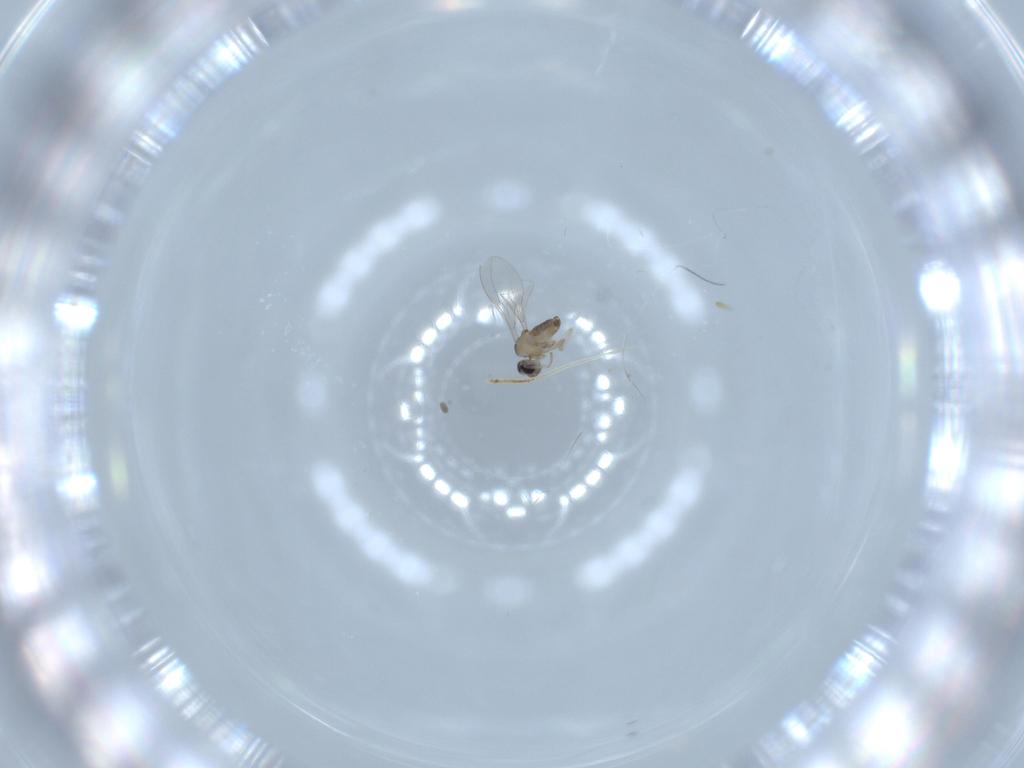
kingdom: Animalia
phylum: Arthropoda
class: Insecta
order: Diptera
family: Cecidomyiidae
